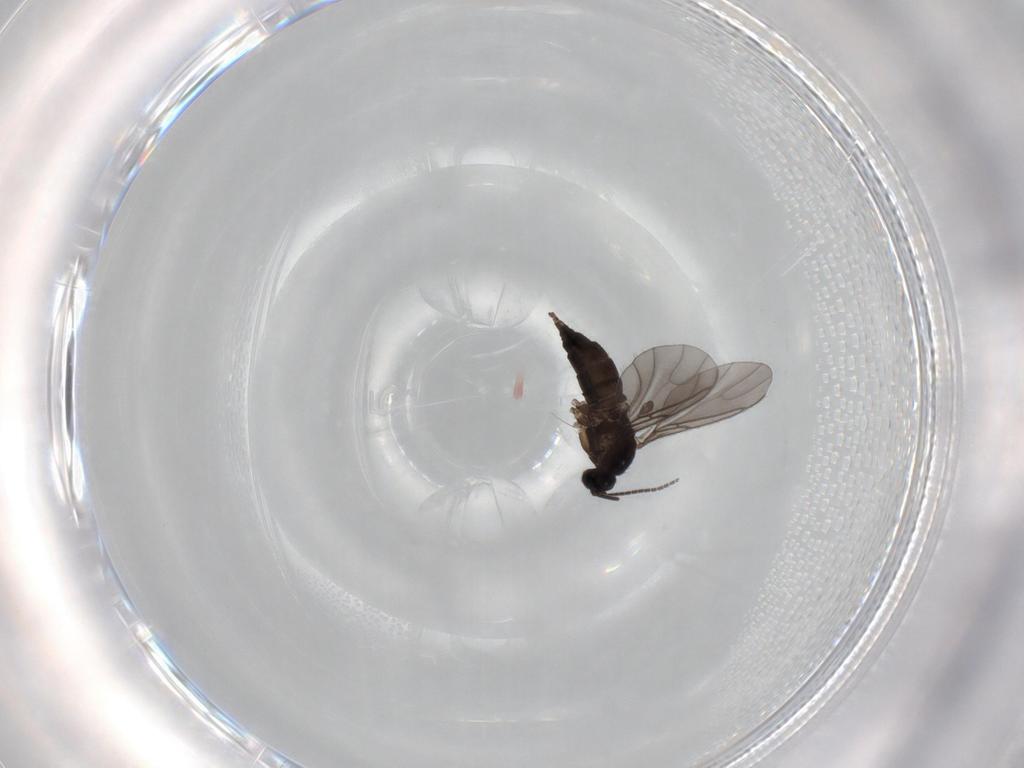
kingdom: Animalia
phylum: Arthropoda
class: Insecta
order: Diptera
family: Sciaridae
